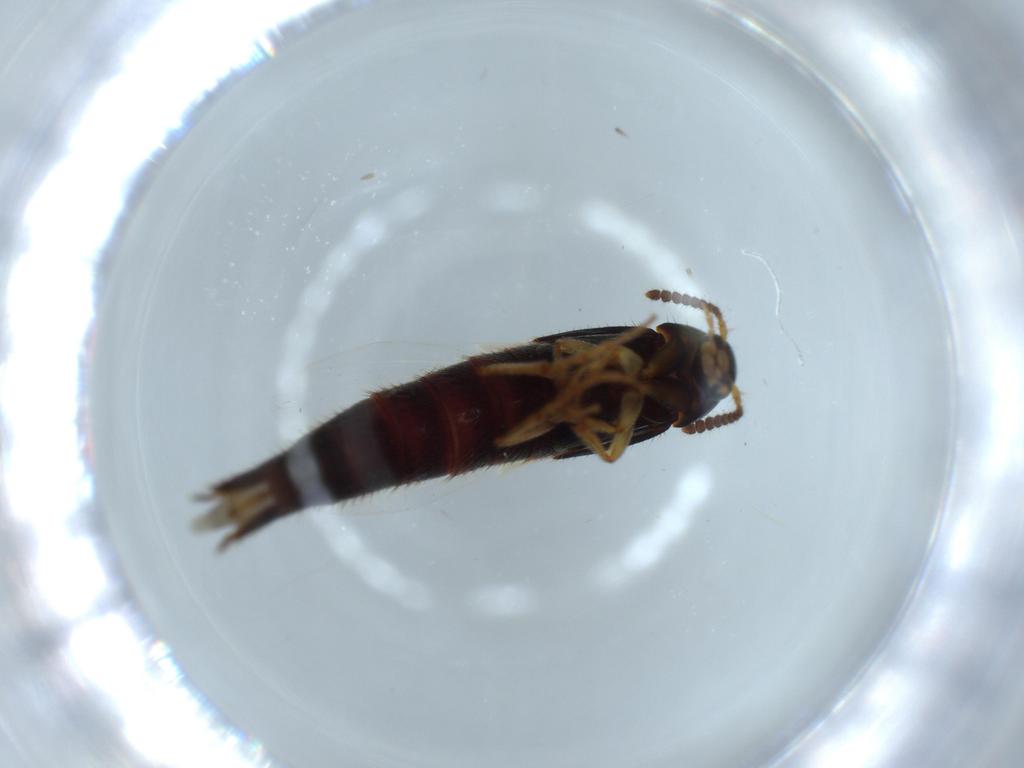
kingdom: Animalia
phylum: Arthropoda
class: Insecta
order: Coleoptera
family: Staphylinidae
